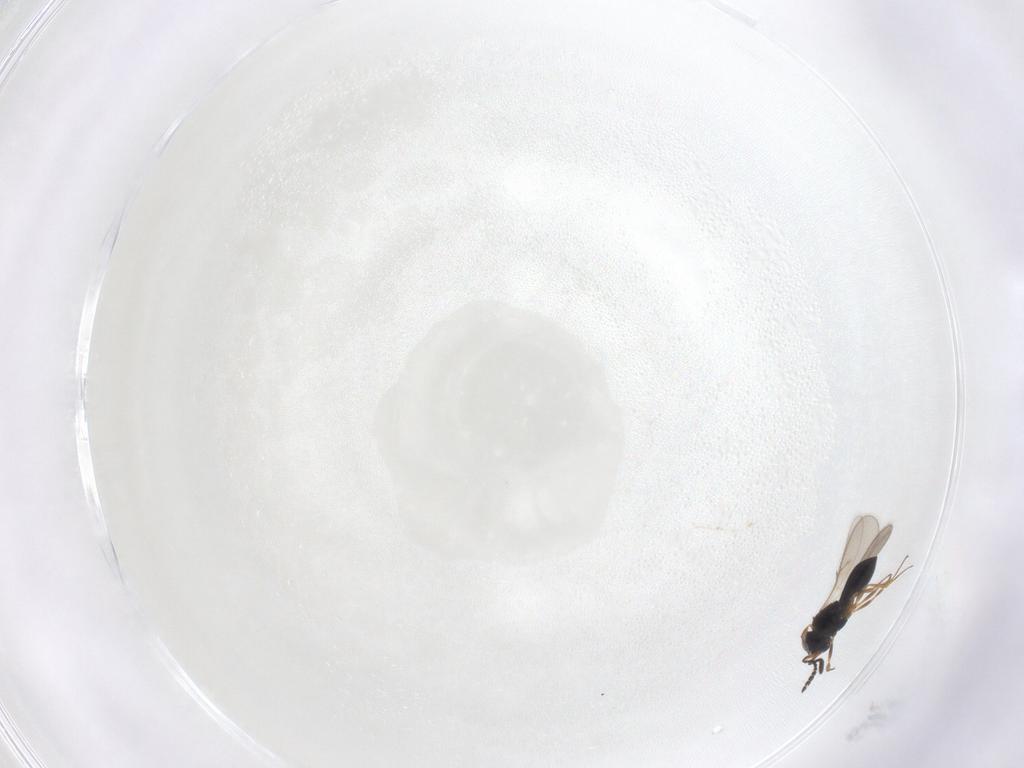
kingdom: Animalia
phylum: Arthropoda
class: Insecta
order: Hymenoptera
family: Scelionidae
